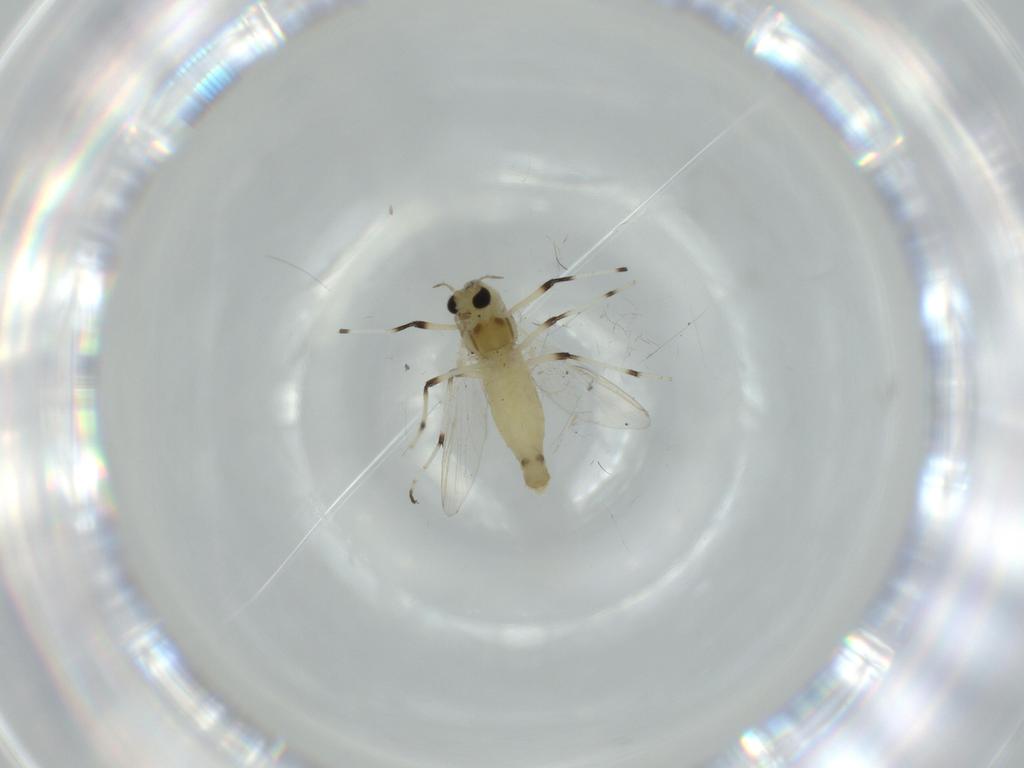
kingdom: Animalia
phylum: Arthropoda
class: Insecta
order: Diptera
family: Chironomidae
